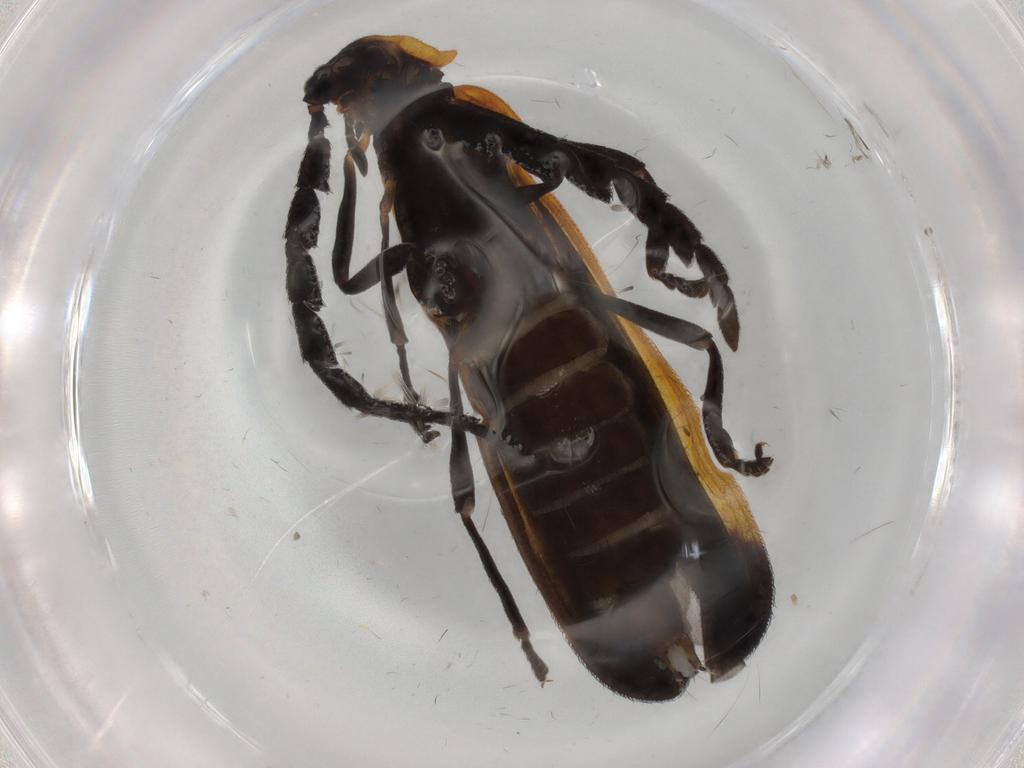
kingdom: Animalia
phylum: Arthropoda
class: Insecta
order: Coleoptera
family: Lycidae
